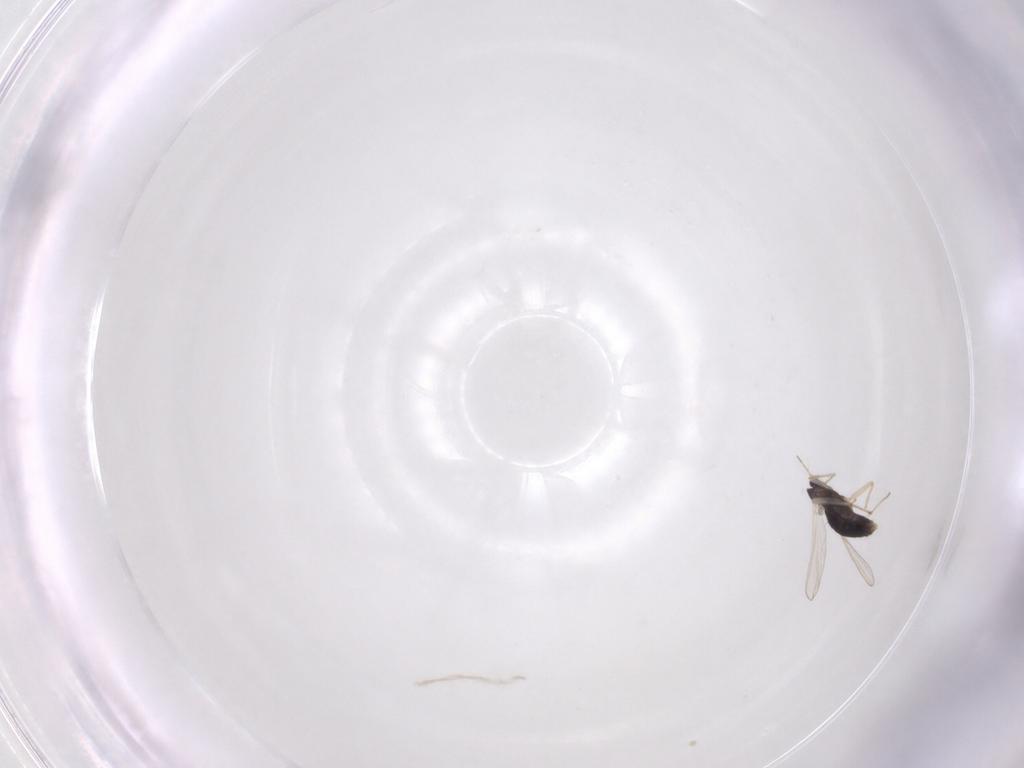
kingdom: Animalia
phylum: Arthropoda
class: Insecta
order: Diptera
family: Chironomidae
